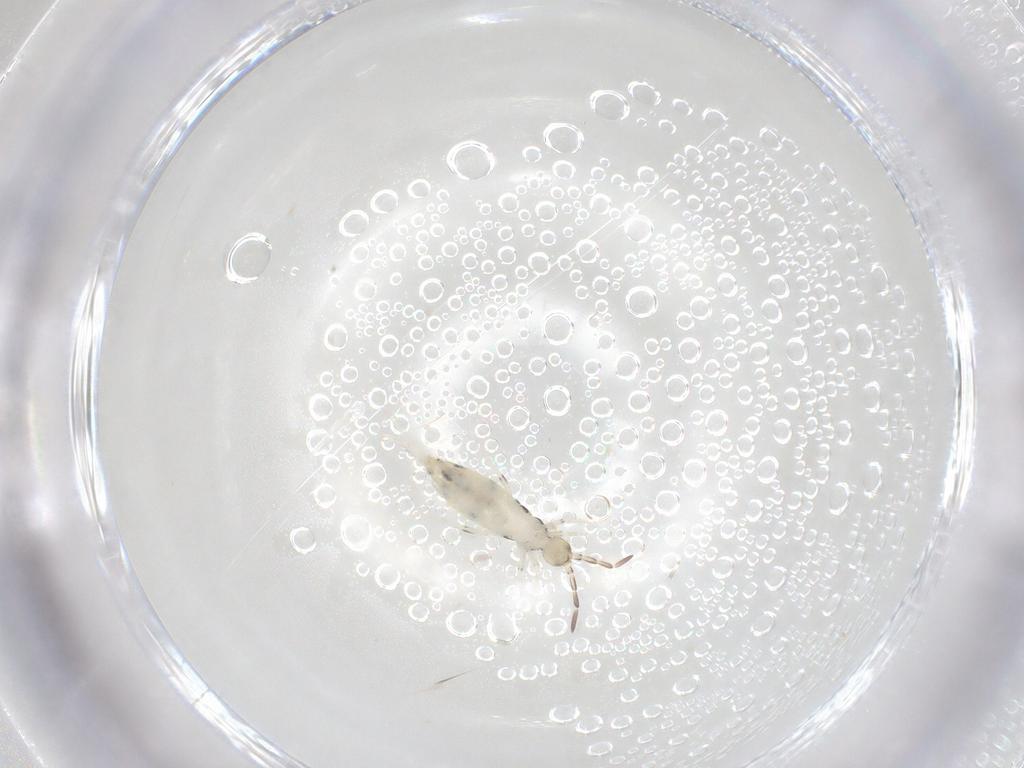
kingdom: Animalia
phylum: Arthropoda
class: Collembola
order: Entomobryomorpha
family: Entomobryidae
